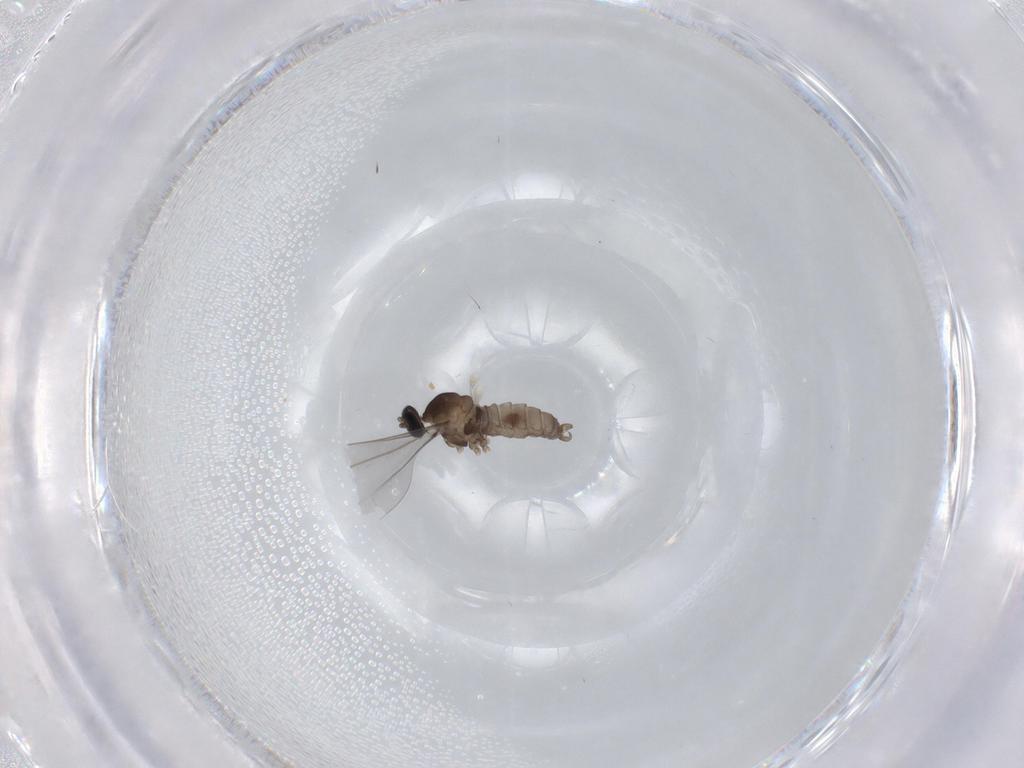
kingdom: Animalia
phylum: Arthropoda
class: Insecta
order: Diptera
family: Cecidomyiidae
